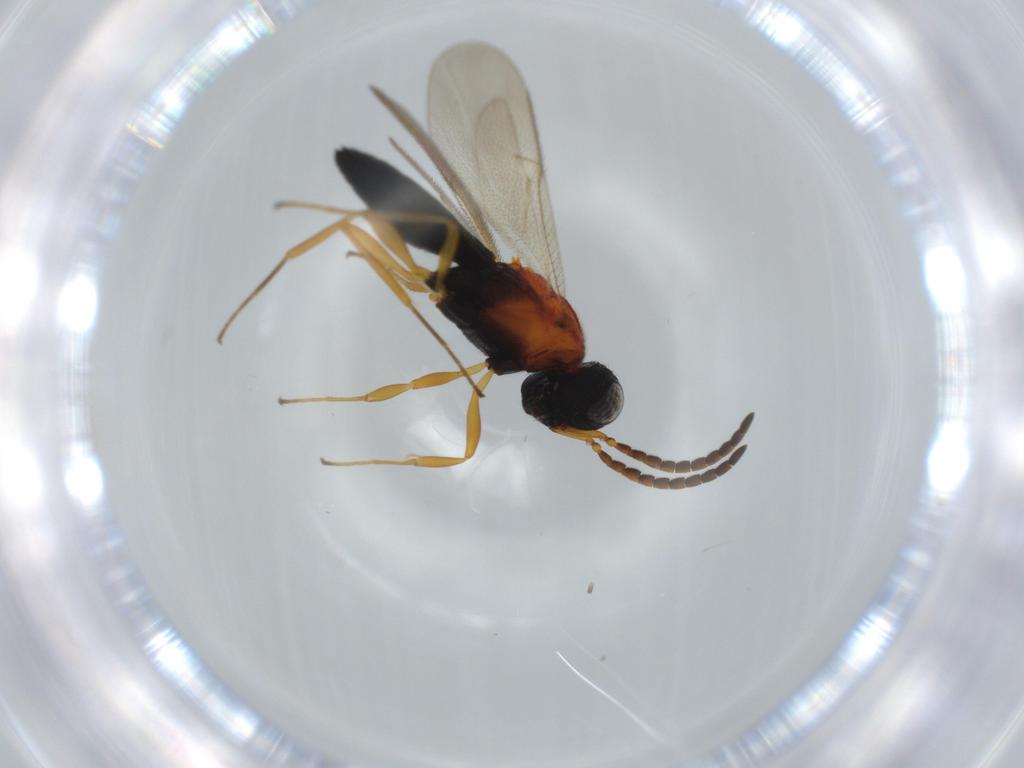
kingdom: Animalia
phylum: Arthropoda
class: Insecta
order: Hymenoptera
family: Scelionidae
